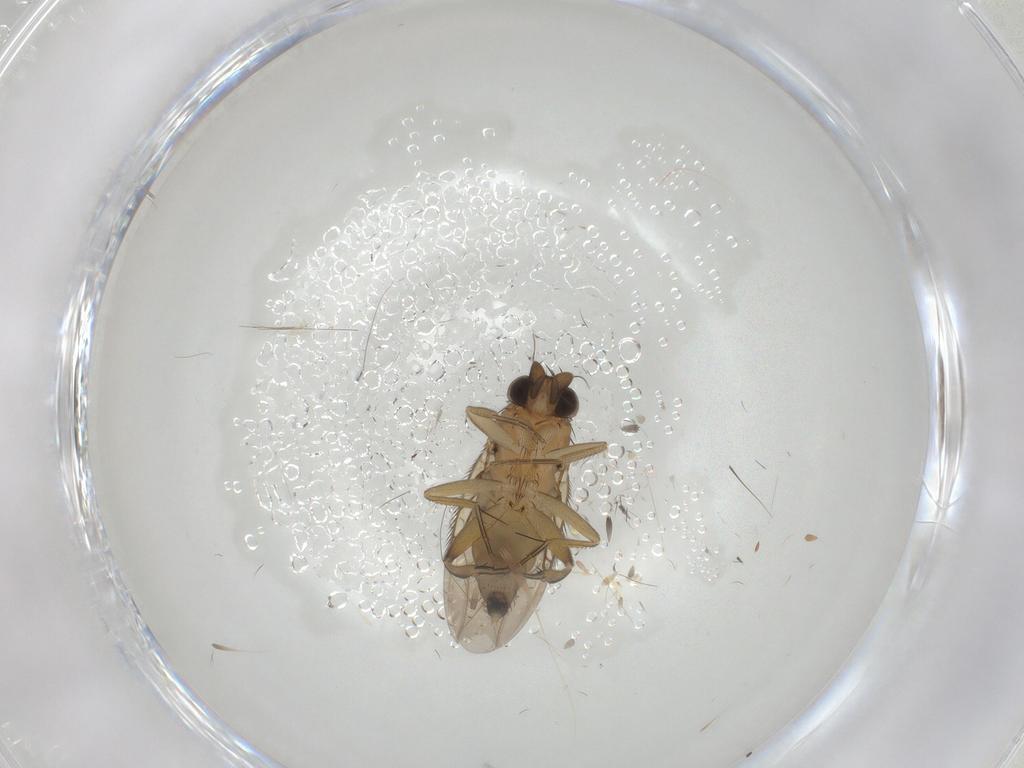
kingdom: Animalia
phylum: Arthropoda
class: Insecta
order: Diptera
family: Phoridae
